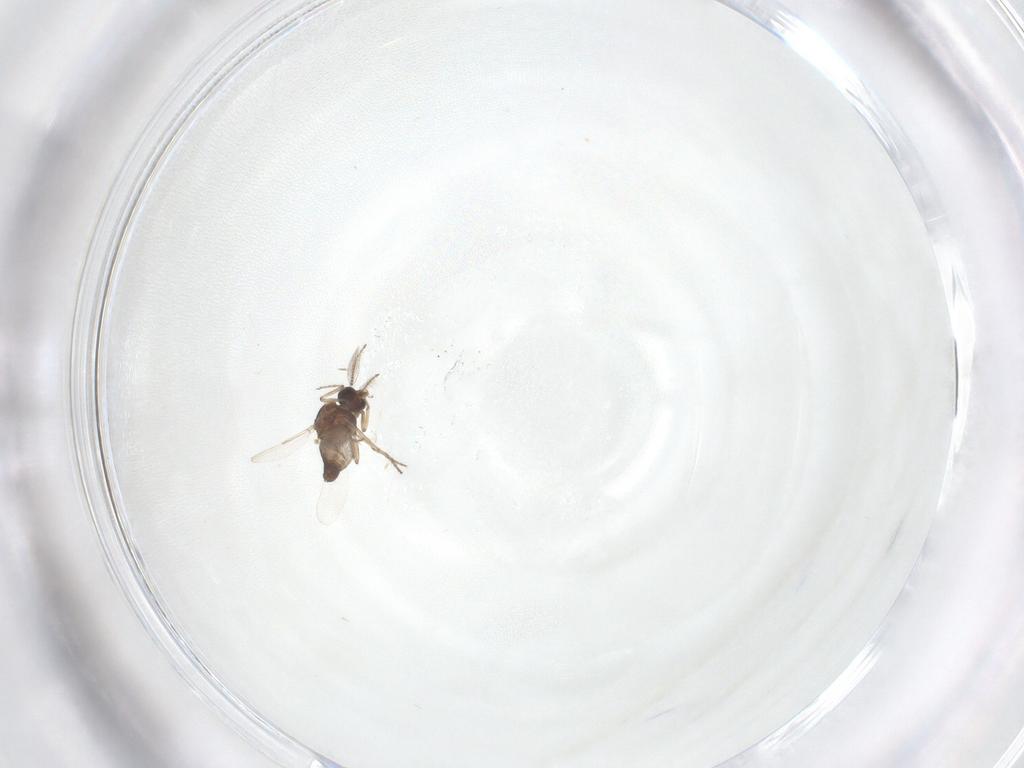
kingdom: Animalia
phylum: Arthropoda
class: Insecta
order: Diptera
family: Ceratopogonidae
